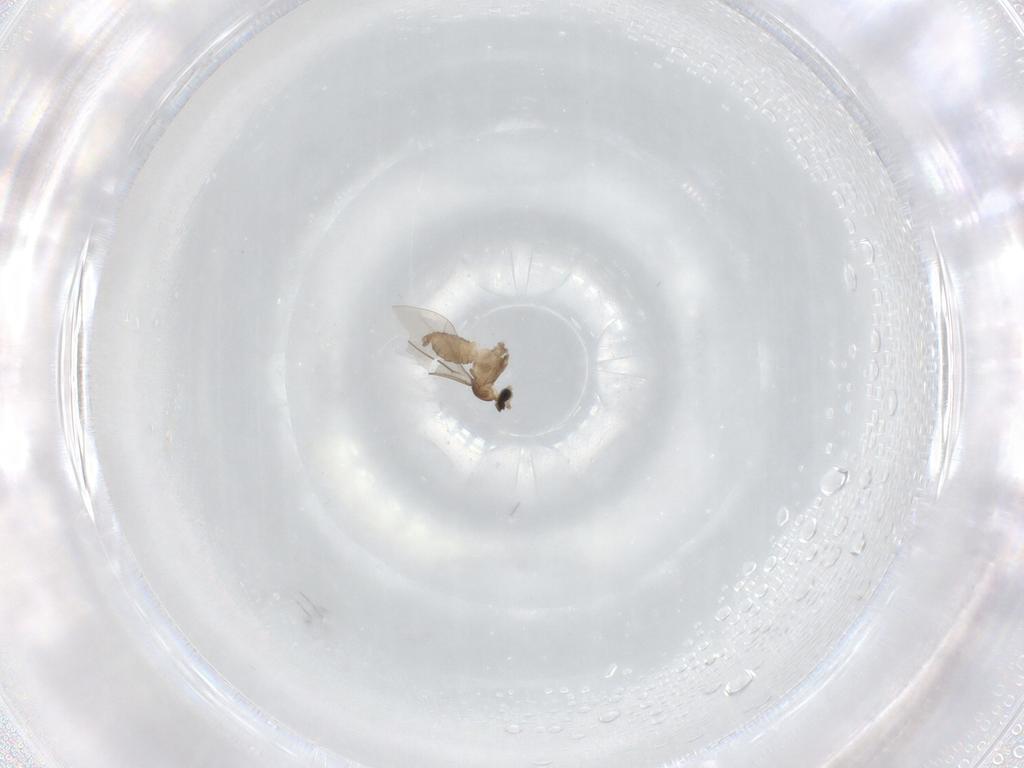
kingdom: Animalia
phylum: Arthropoda
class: Insecta
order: Diptera
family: Cecidomyiidae
